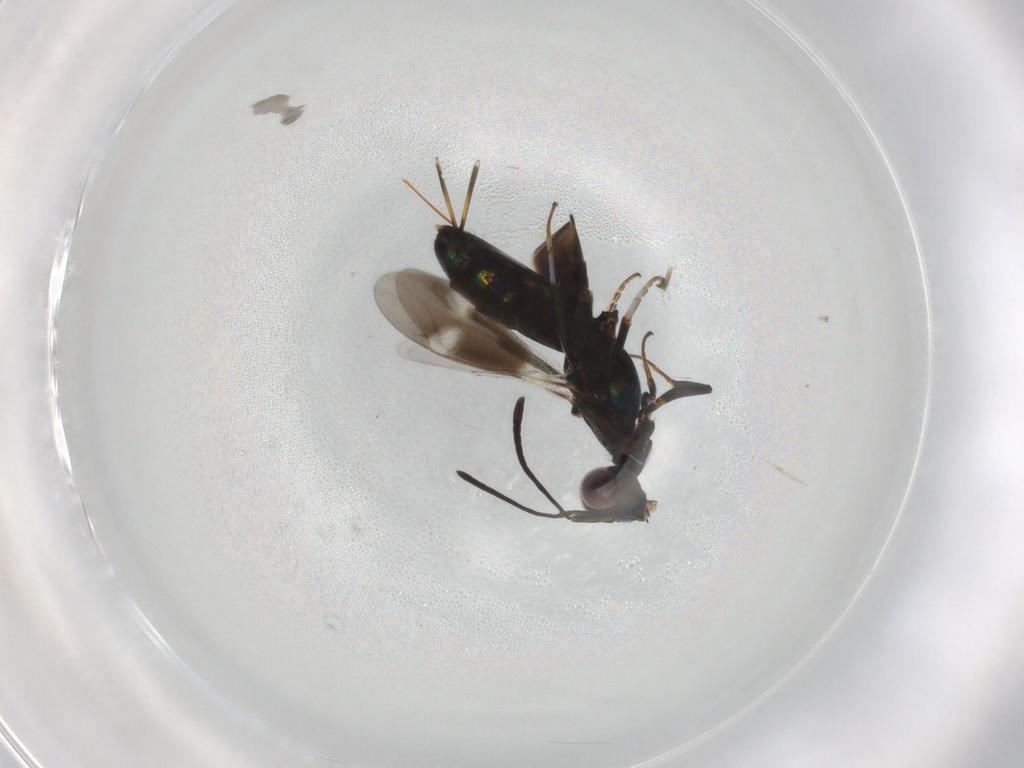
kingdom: Animalia
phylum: Arthropoda
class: Insecta
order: Hymenoptera
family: Eupelmidae
